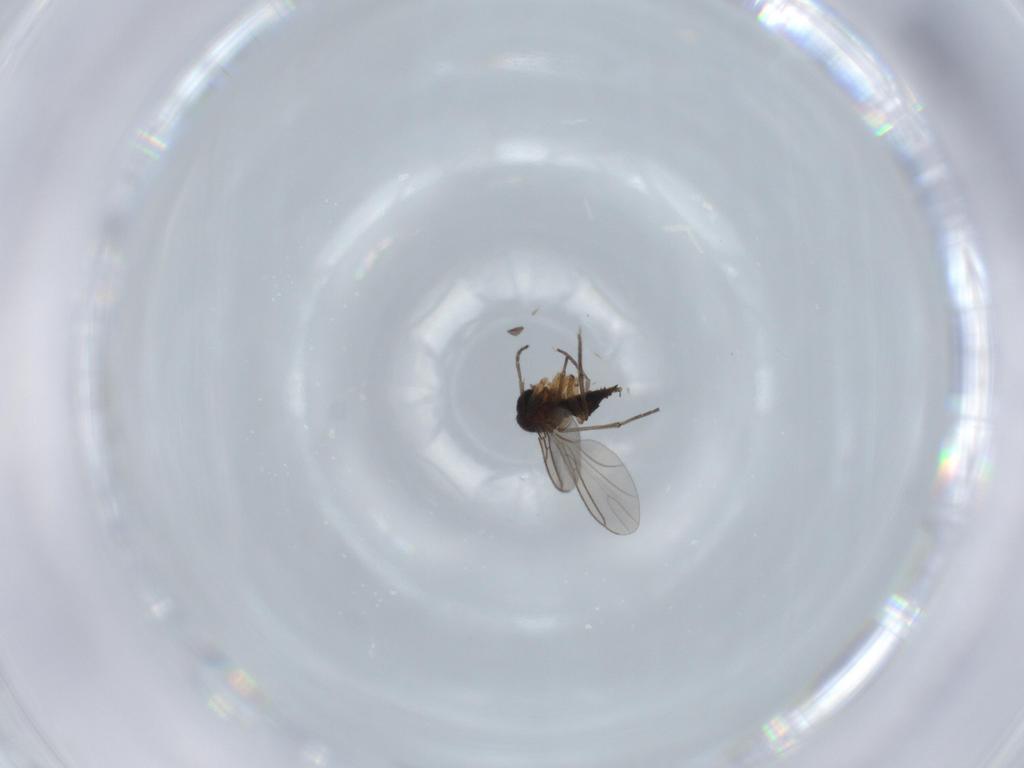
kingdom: Animalia
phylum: Arthropoda
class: Insecta
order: Diptera
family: Sciaridae
